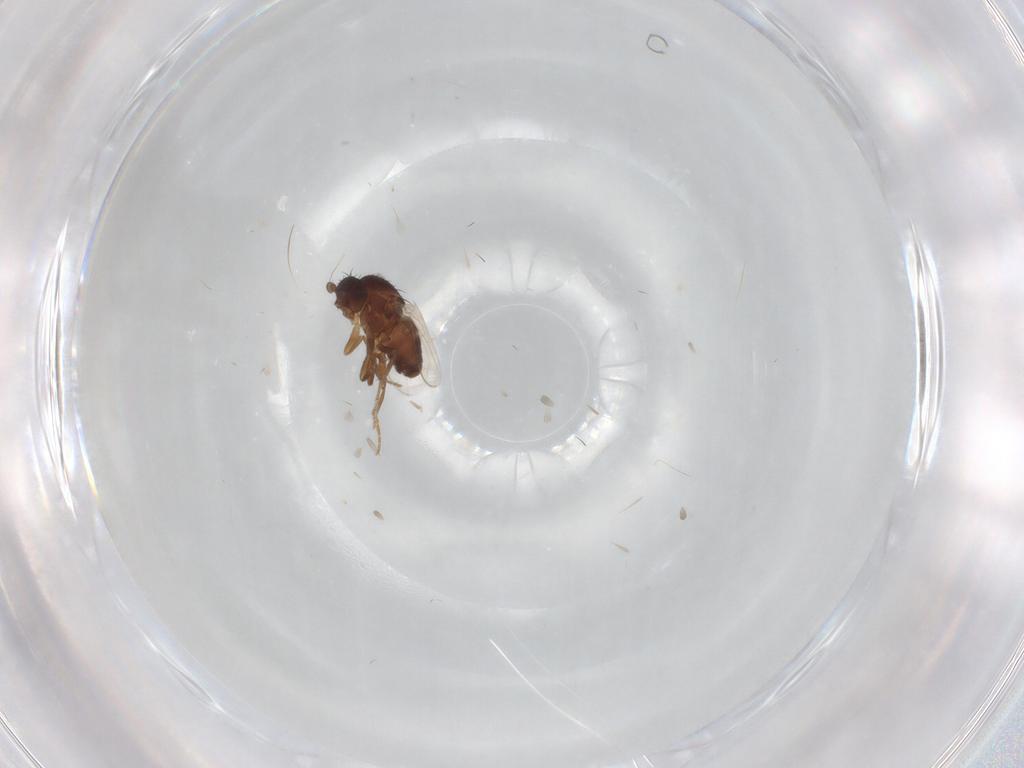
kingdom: Animalia
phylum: Arthropoda
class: Insecta
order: Diptera
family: Sphaeroceridae
